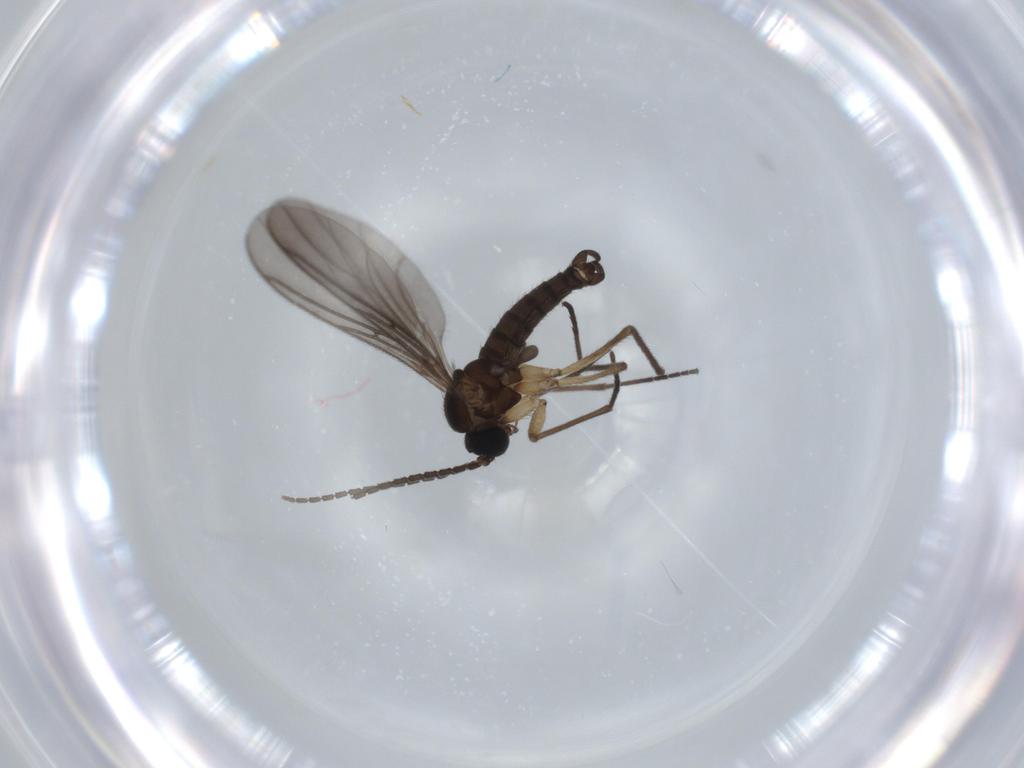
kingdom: Animalia
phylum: Arthropoda
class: Insecta
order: Diptera
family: Sciaridae
